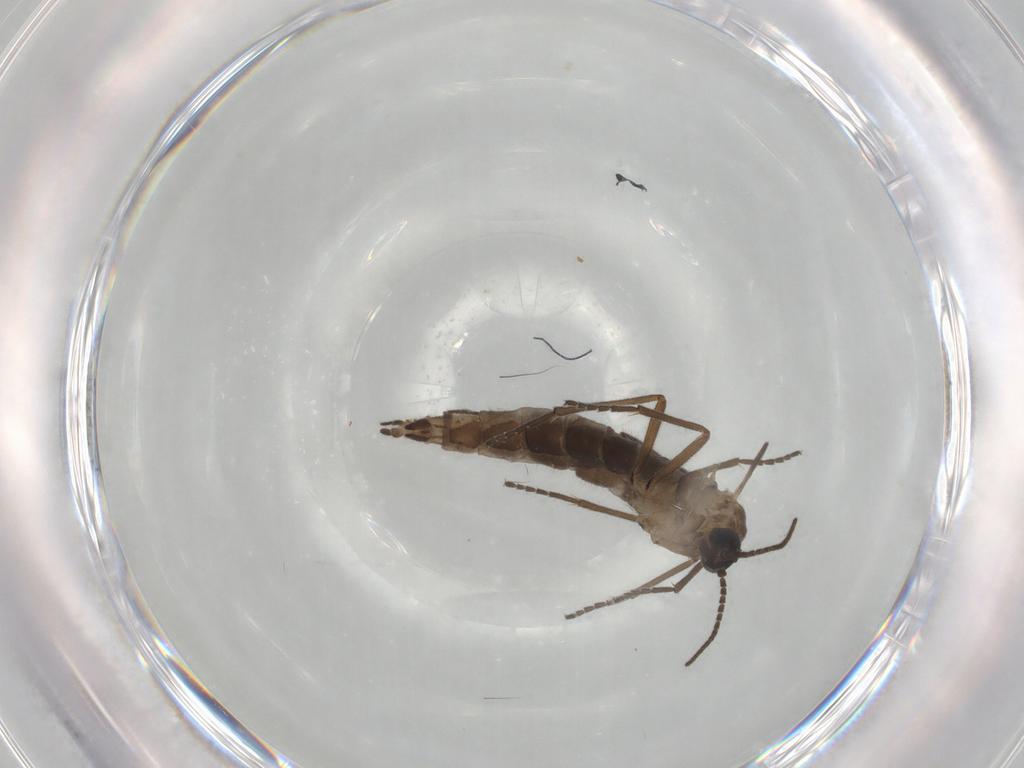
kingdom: Animalia
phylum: Arthropoda
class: Insecta
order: Diptera
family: Sciaridae
